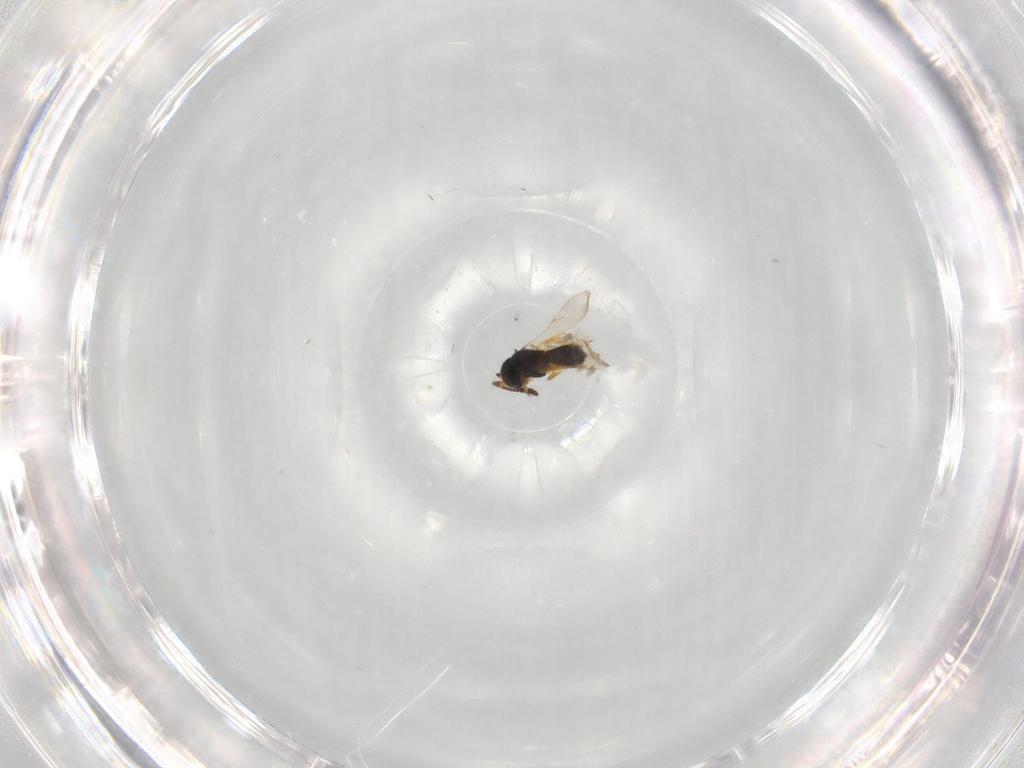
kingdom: Animalia
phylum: Arthropoda
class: Insecta
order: Hymenoptera
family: Scelionidae
